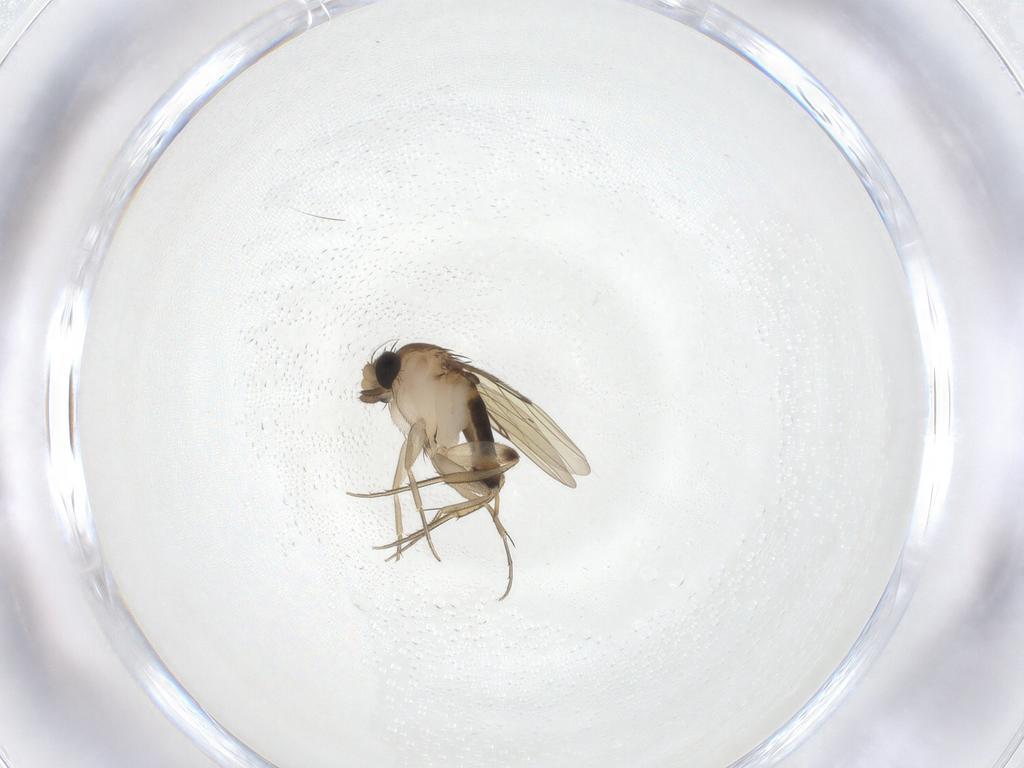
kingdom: Animalia
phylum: Arthropoda
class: Insecta
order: Diptera
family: Phoridae
